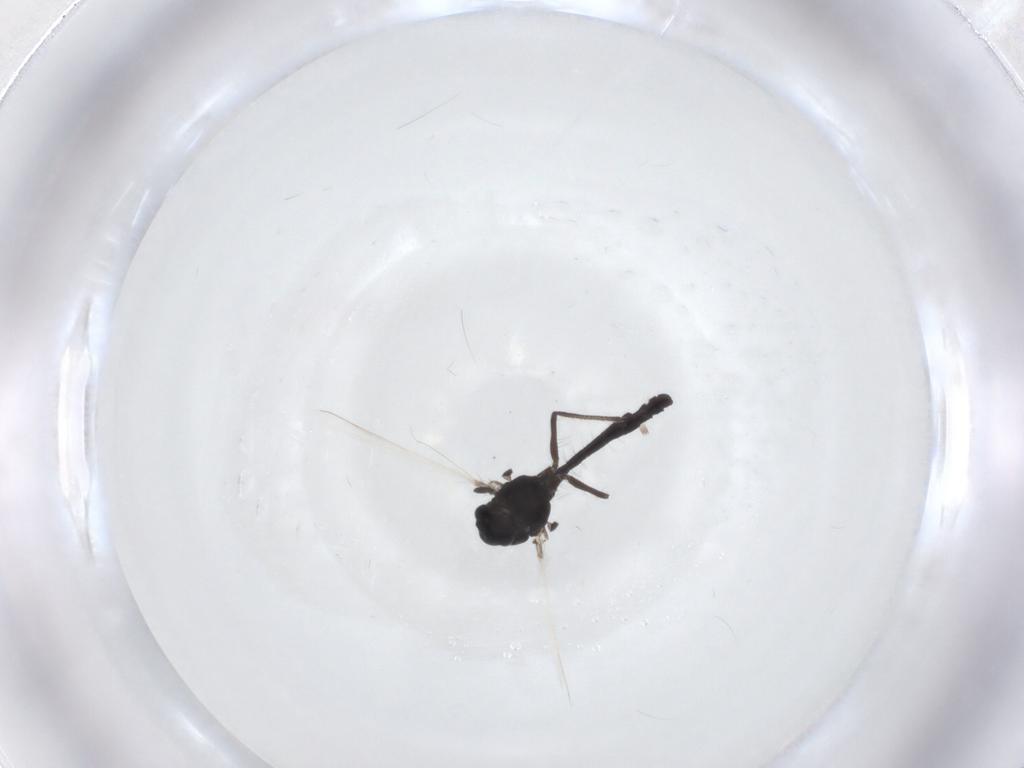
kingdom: Animalia
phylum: Arthropoda
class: Insecta
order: Diptera
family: Chironomidae
